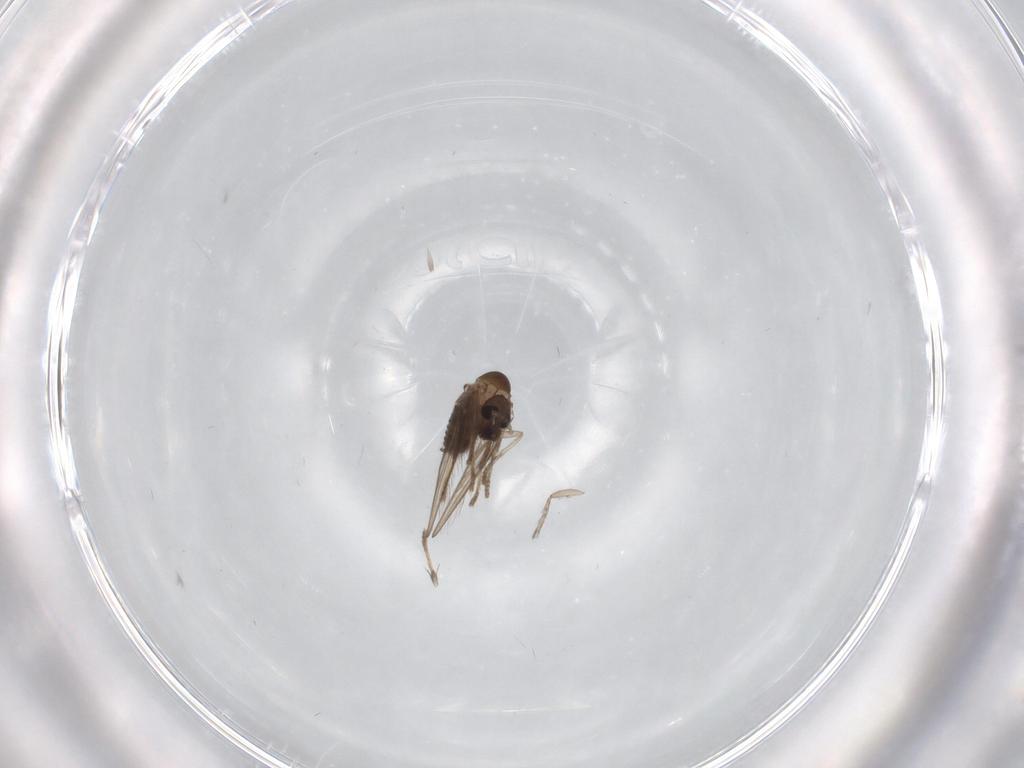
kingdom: Animalia
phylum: Arthropoda
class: Insecta
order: Diptera
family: Psychodidae
